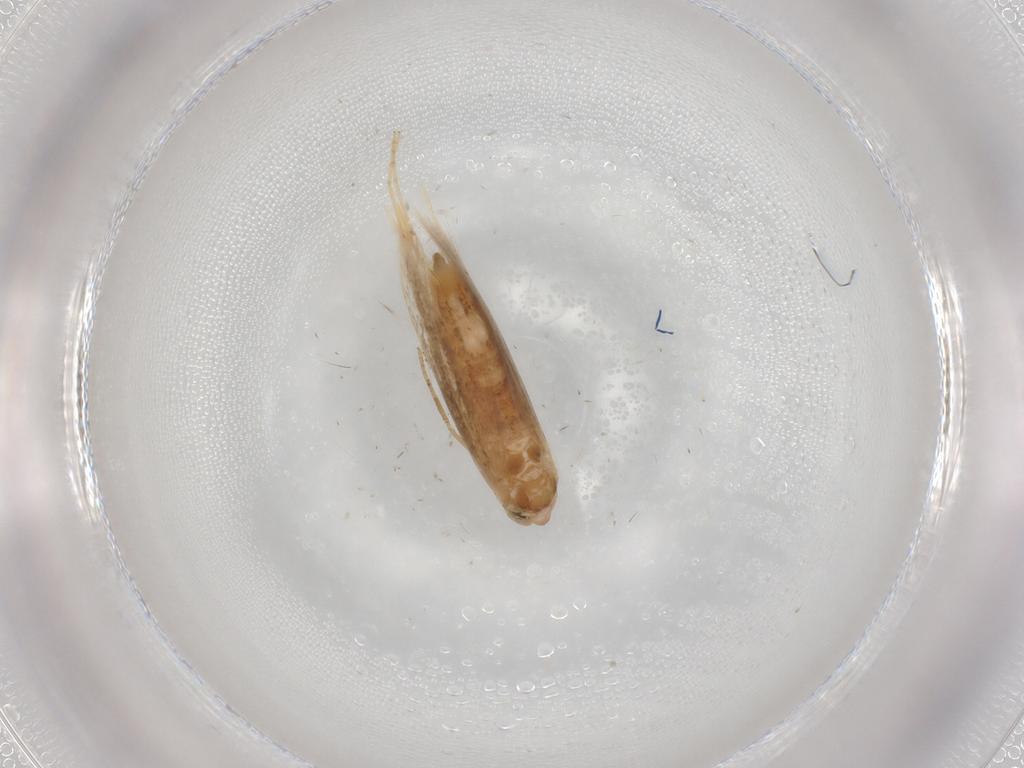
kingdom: Animalia
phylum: Arthropoda
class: Insecta
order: Lepidoptera
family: Bucculatricidae
